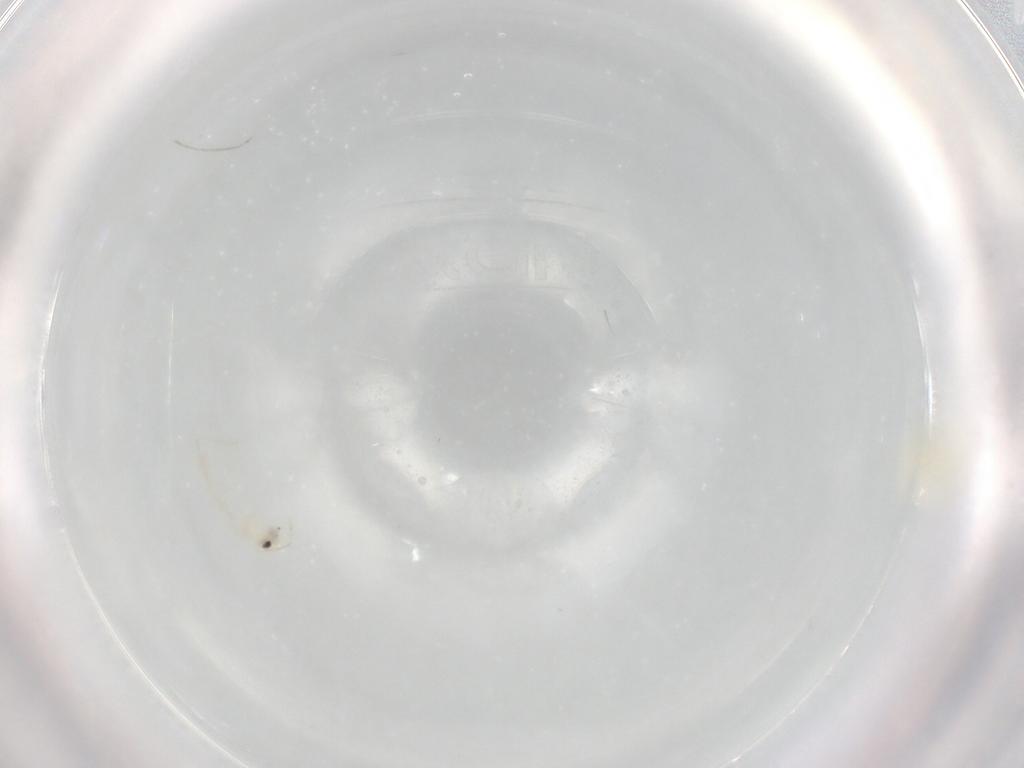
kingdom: Animalia
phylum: Arthropoda
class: Insecta
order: Hemiptera
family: Aleyrodidae
